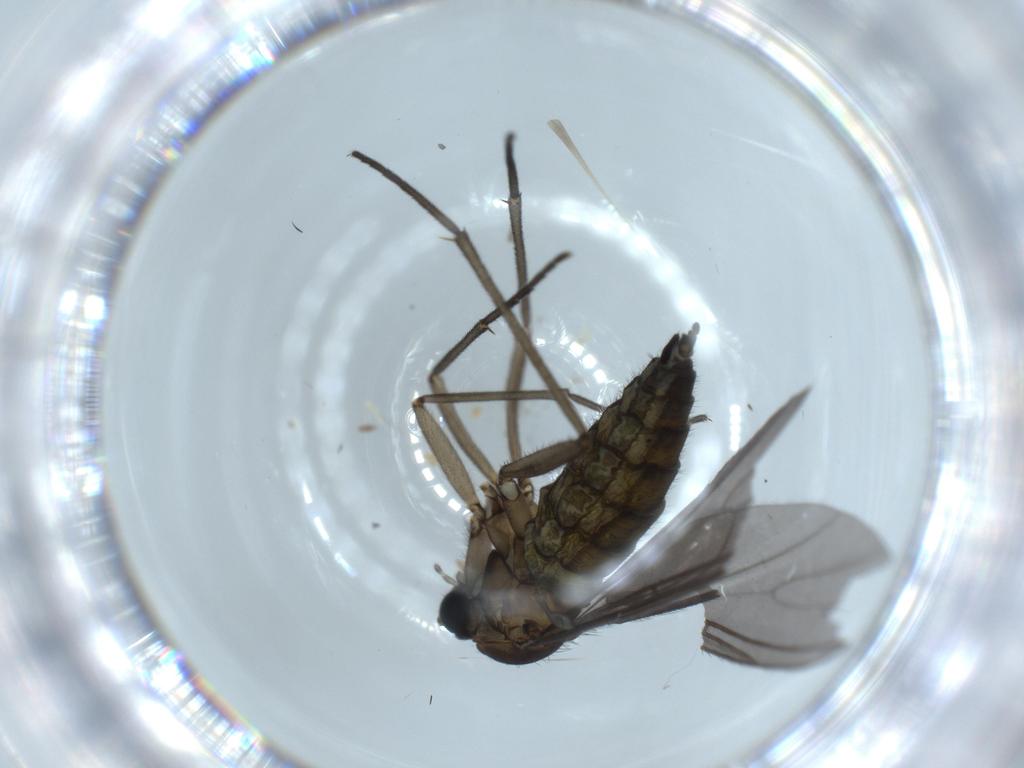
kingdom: Animalia
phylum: Arthropoda
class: Insecta
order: Diptera
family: Sciaridae
